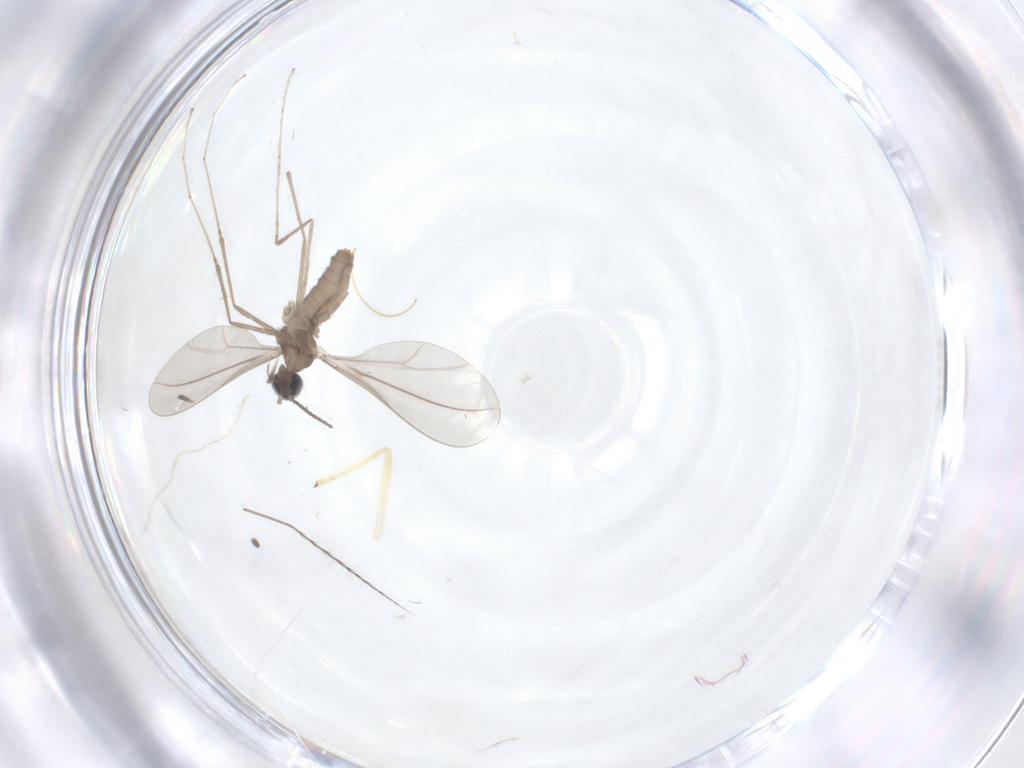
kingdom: Animalia
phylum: Arthropoda
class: Insecta
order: Diptera
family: Cecidomyiidae
